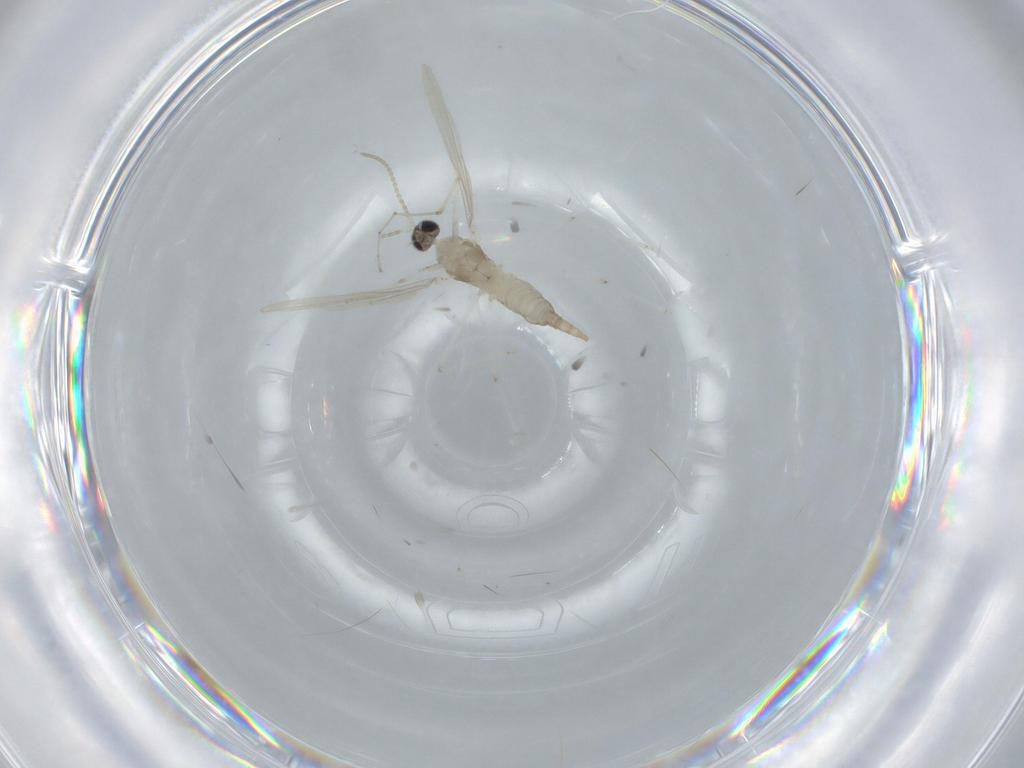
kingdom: Animalia
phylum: Arthropoda
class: Insecta
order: Diptera
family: Cecidomyiidae
